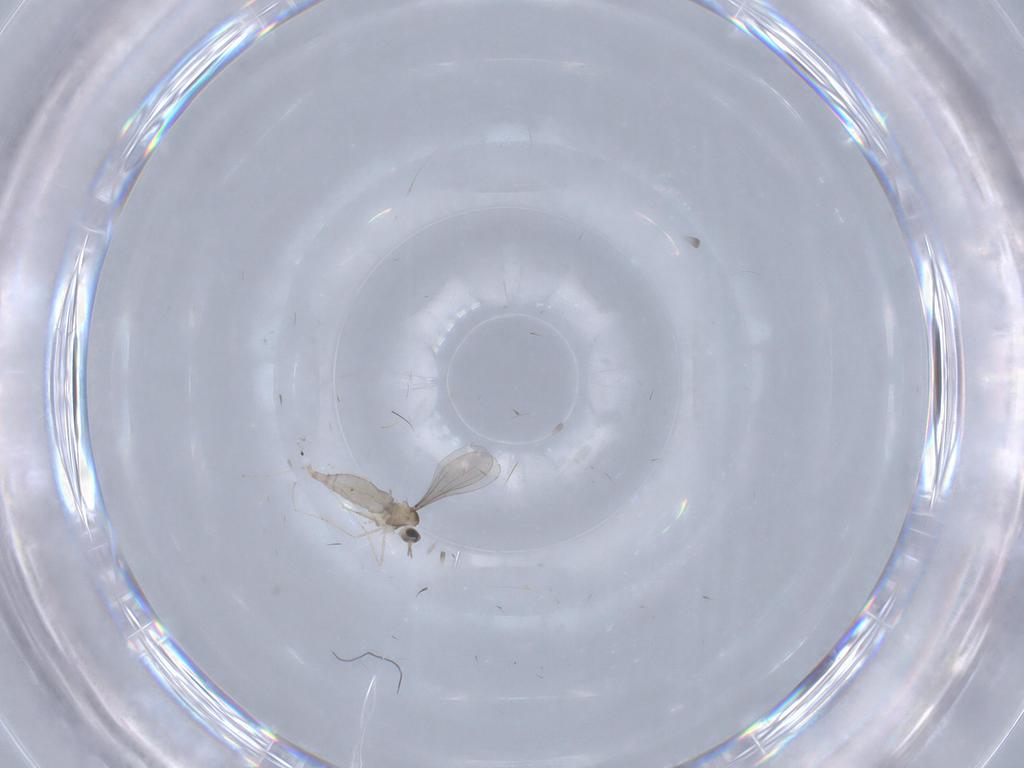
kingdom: Animalia
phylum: Arthropoda
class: Insecta
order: Diptera
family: Cecidomyiidae
